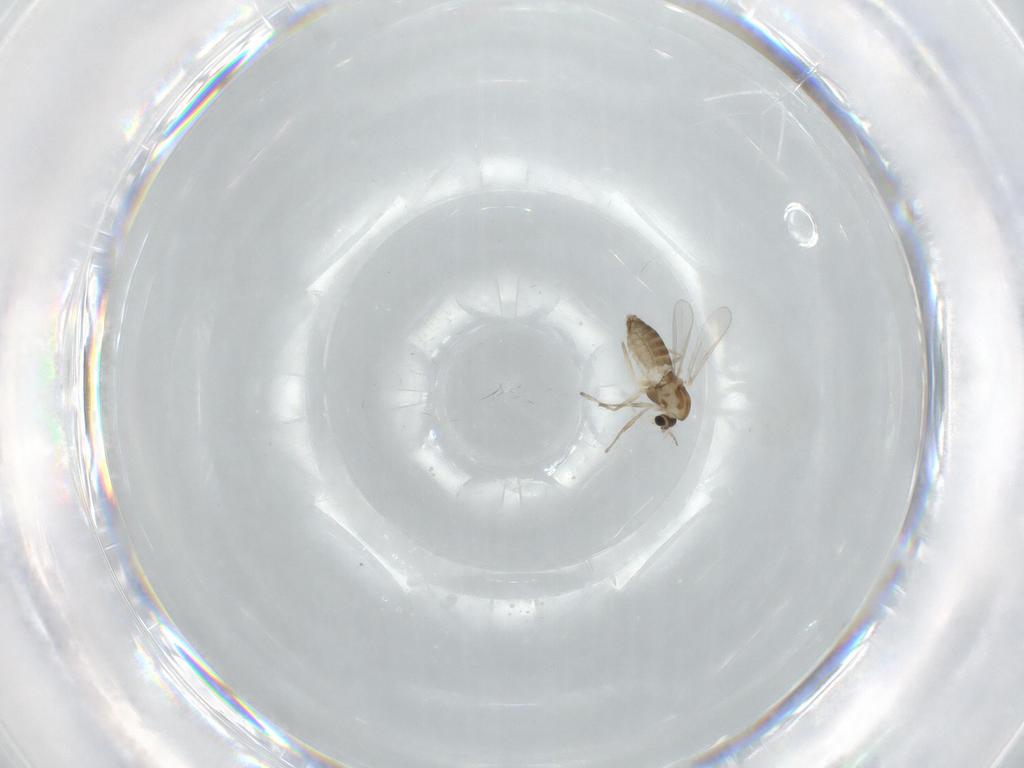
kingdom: Animalia
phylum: Arthropoda
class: Insecta
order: Diptera
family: Chironomidae
